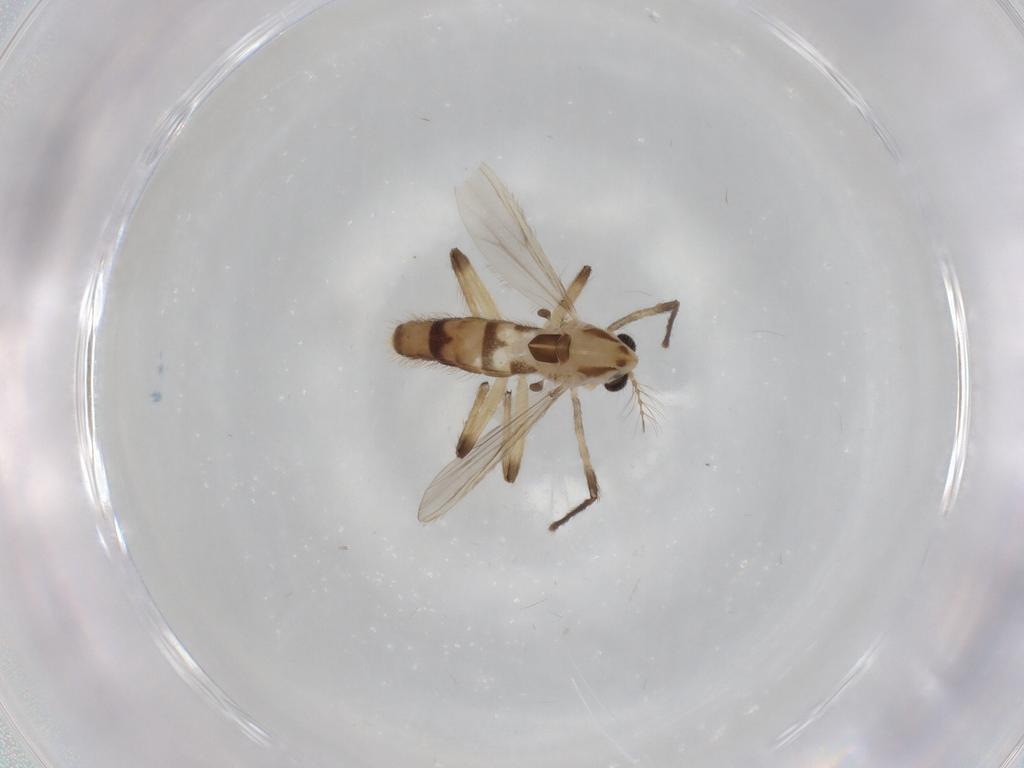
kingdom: Animalia
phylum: Arthropoda
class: Insecta
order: Diptera
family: Chironomidae
